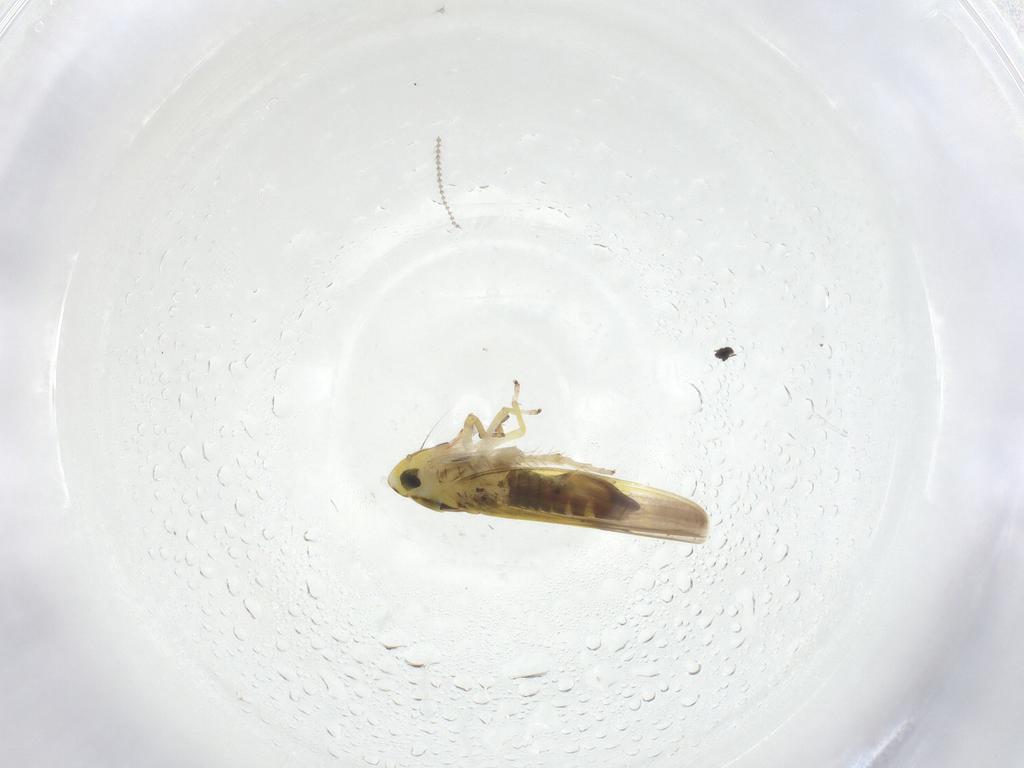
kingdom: Animalia
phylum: Arthropoda
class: Insecta
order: Hemiptera
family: Cicadellidae
